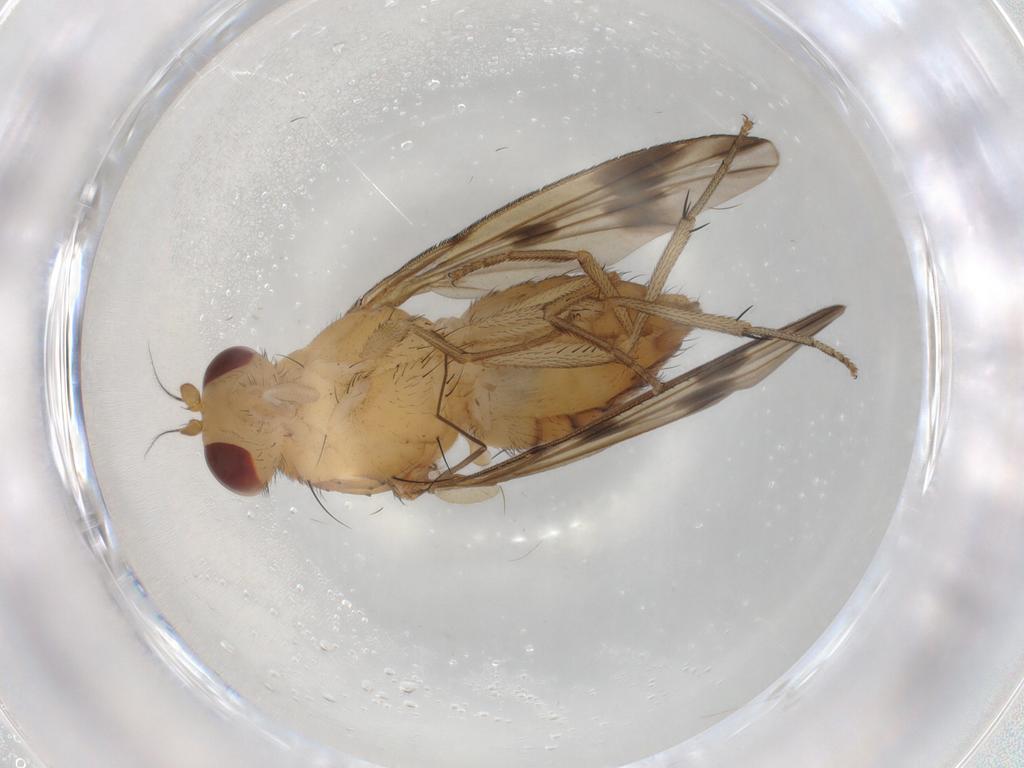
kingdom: Animalia
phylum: Arthropoda
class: Insecta
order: Diptera
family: Chironomidae
